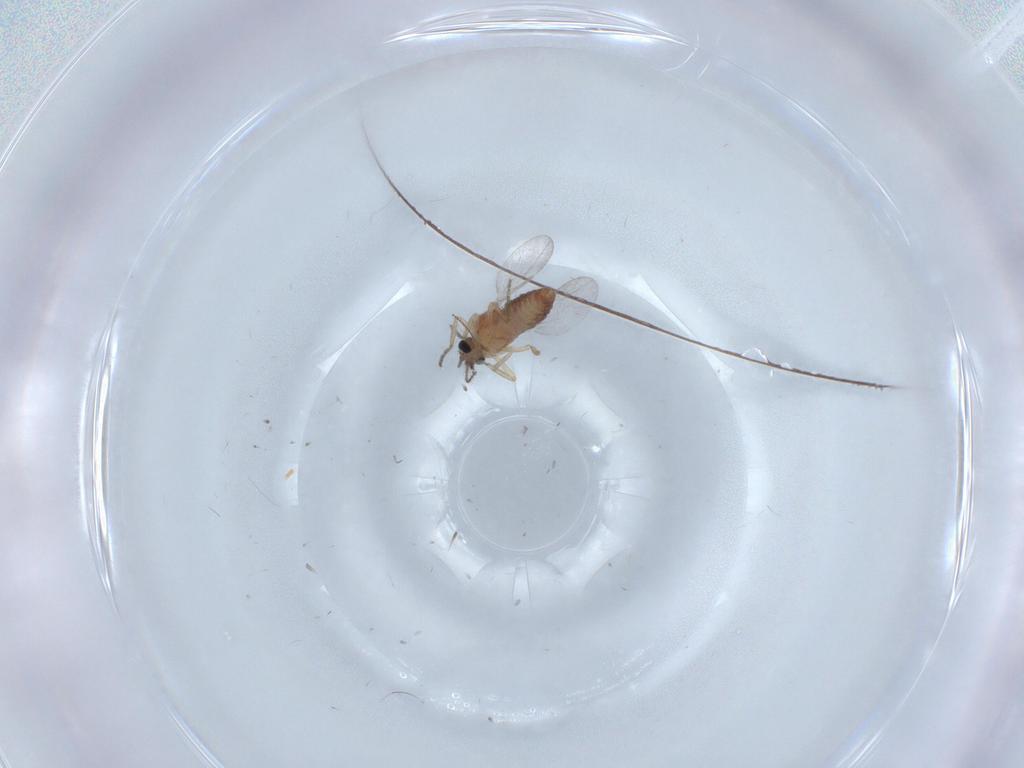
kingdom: Animalia
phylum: Arthropoda
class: Insecta
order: Diptera
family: Ceratopogonidae
